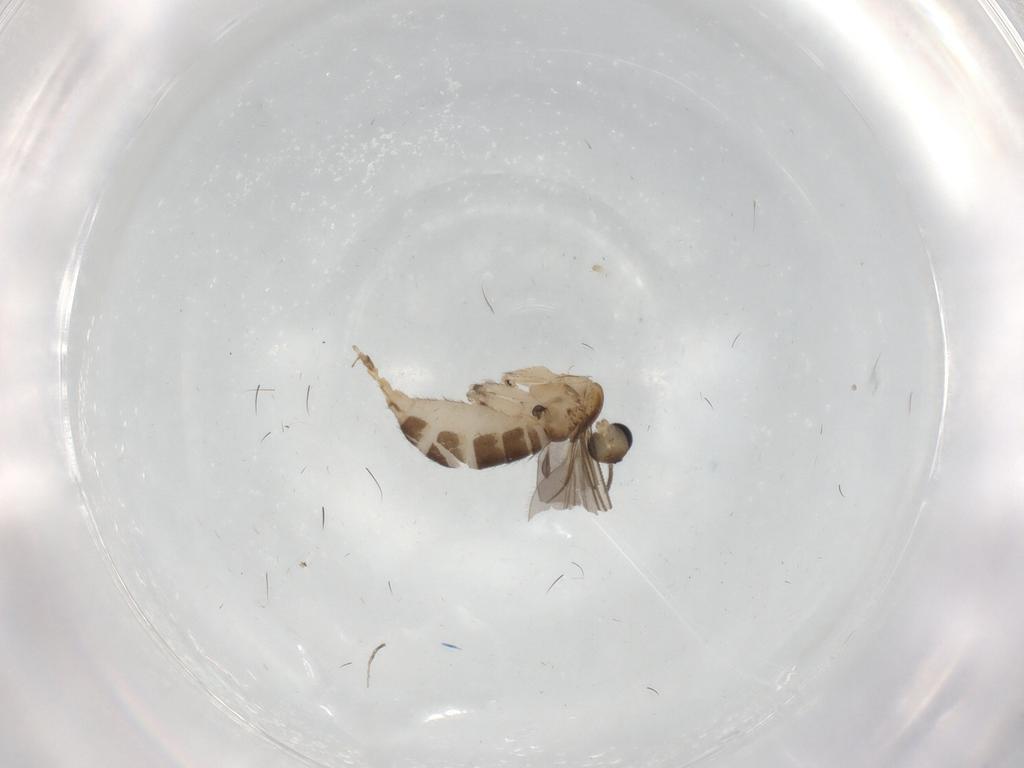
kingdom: Animalia
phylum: Arthropoda
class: Insecta
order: Diptera
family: Sciaridae
